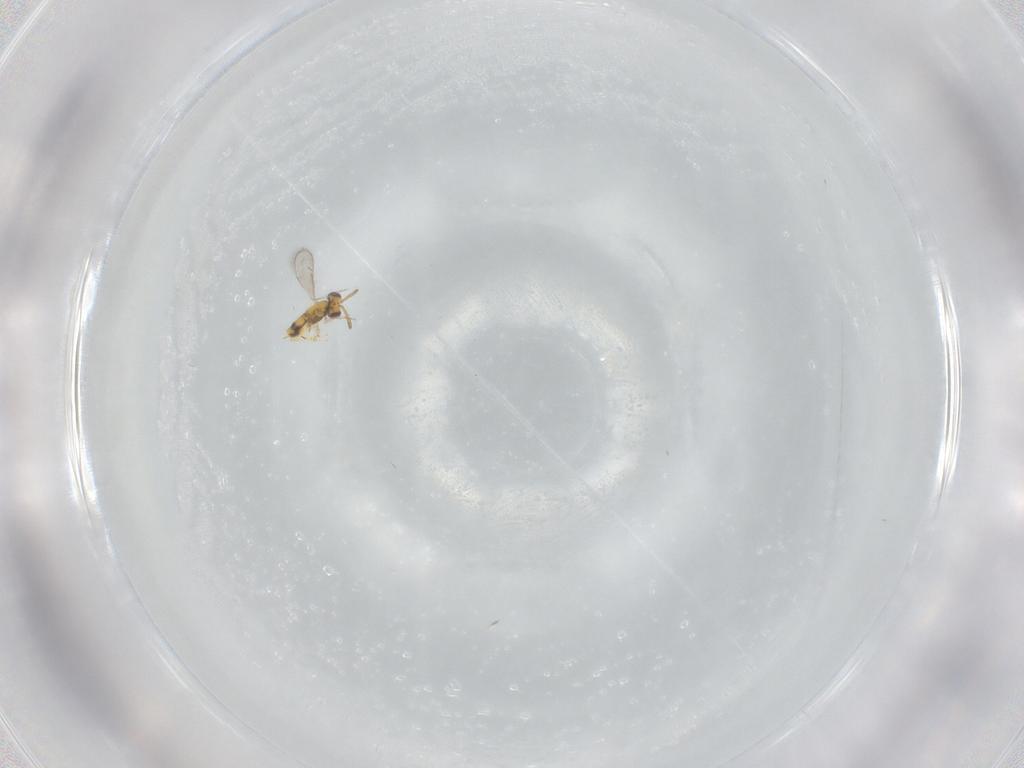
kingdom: Animalia
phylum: Arthropoda
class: Insecta
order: Hymenoptera
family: Aphelinidae
